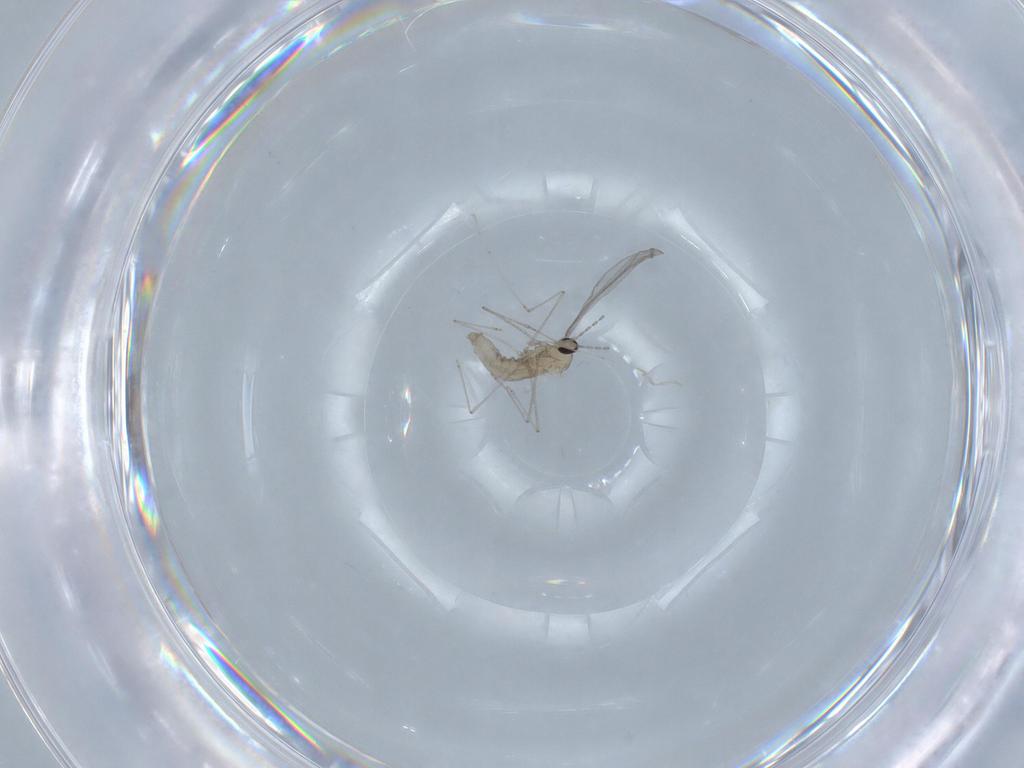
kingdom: Animalia
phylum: Arthropoda
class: Insecta
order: Diptera
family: Cecidomyiidae
